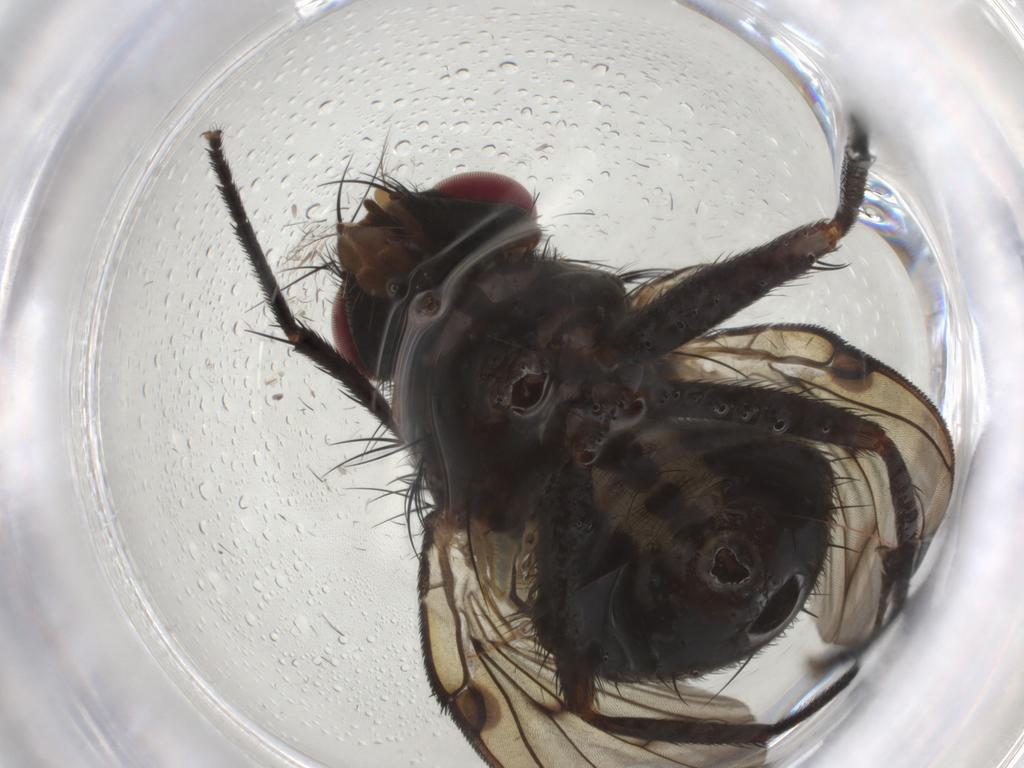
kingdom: Animalia
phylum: Arthropoda
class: Insecta
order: Diptera
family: Muscidae
